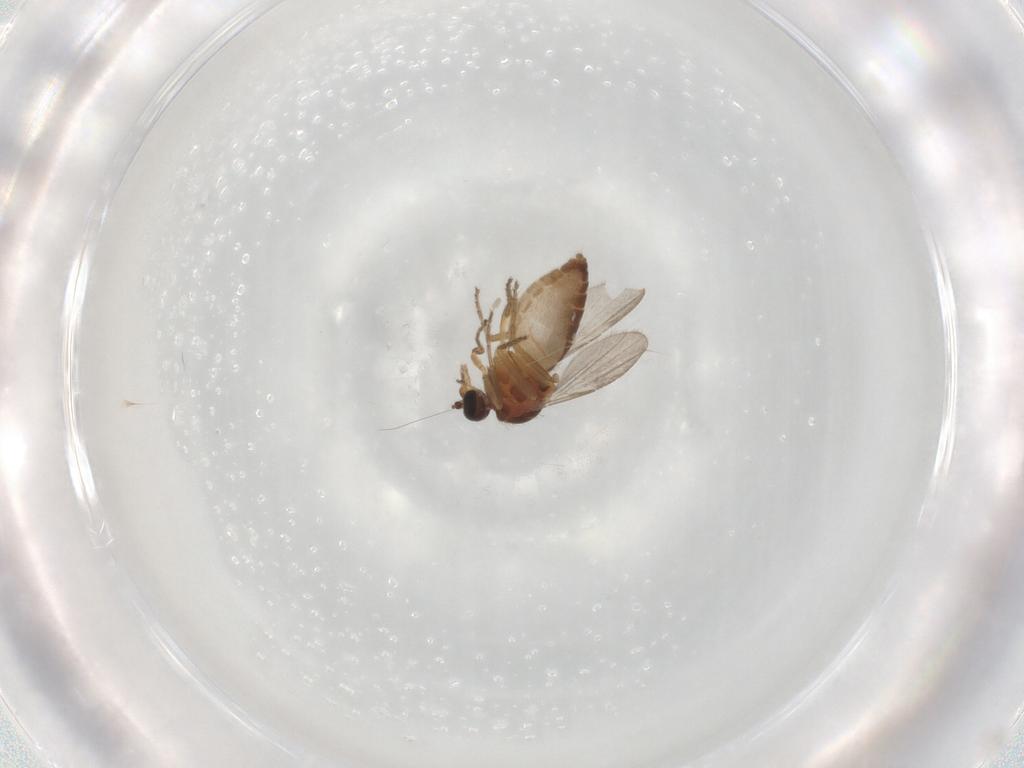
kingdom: Animalia
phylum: Arthropoda
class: Insecta
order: Diptera
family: Ceratopogonidae
